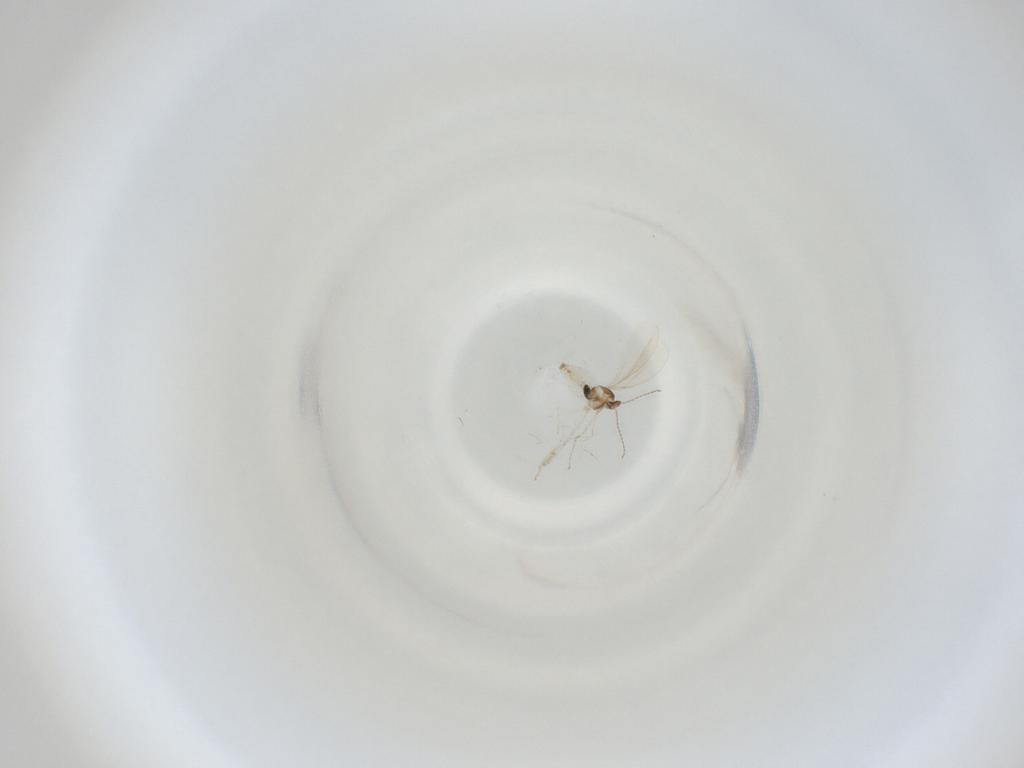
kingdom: Animalia
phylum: Arthropoda
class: Insecta
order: Diptera
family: Cecidomyiidae
